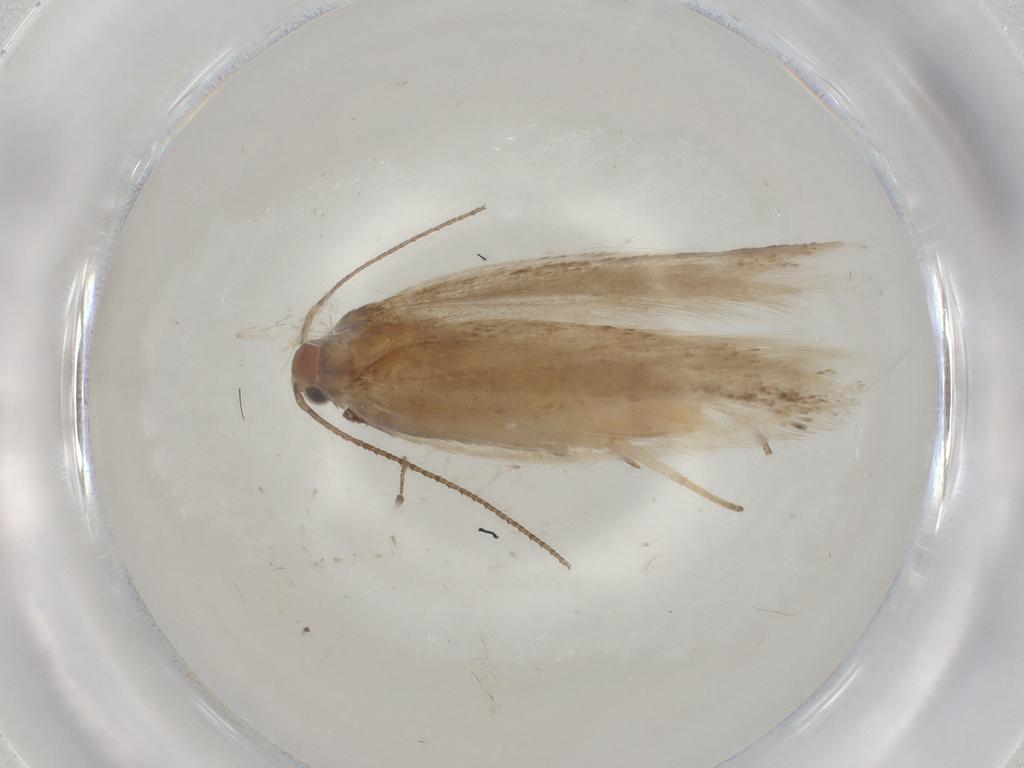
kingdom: Animalia
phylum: Arthropoda
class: Insecta
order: Lepidoptera
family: Gelechiidae
